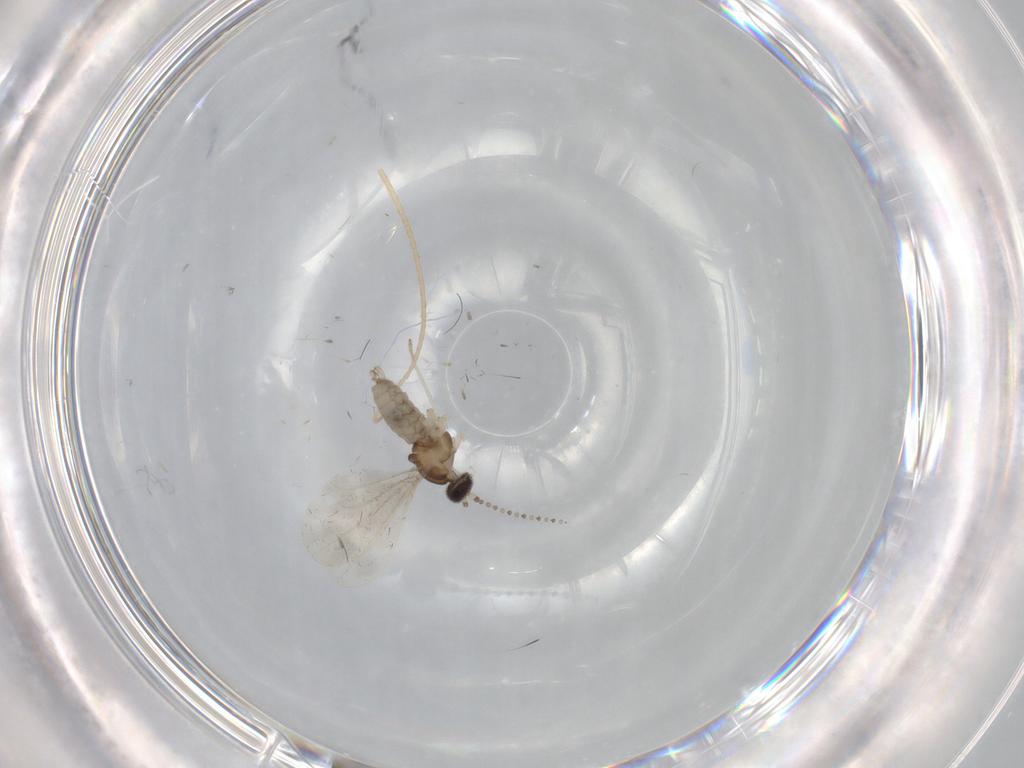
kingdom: Animalia
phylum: Arthropoda
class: Insecta
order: Diptera
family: Cecidomyiidae
